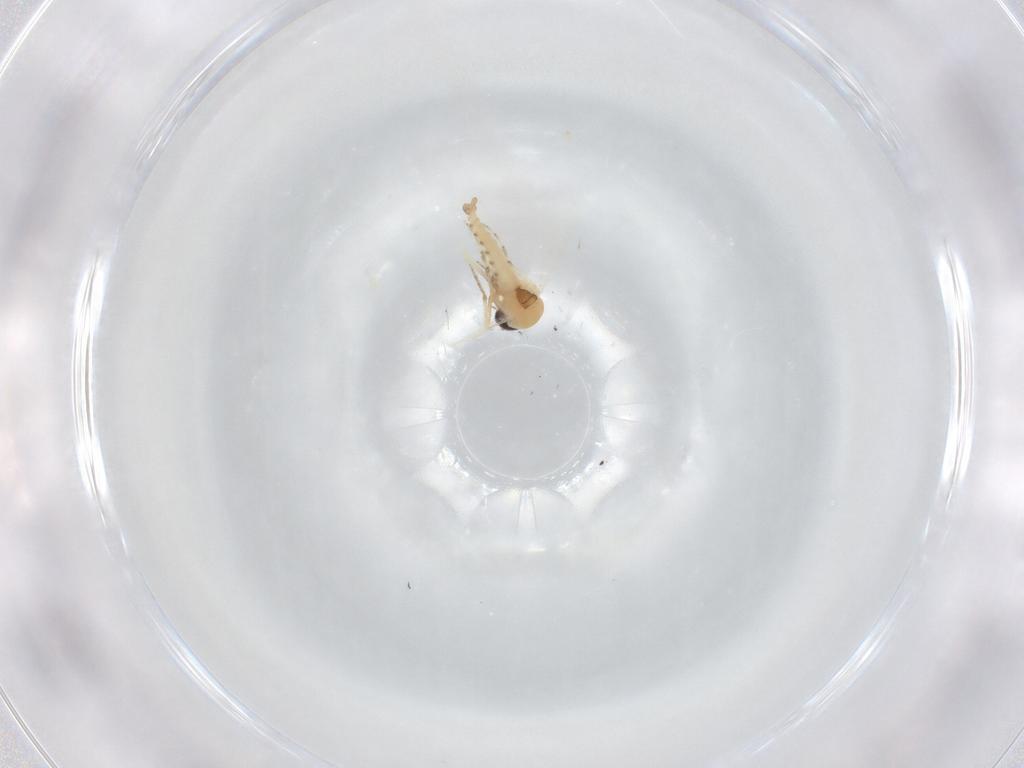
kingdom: Animalia
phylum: Arthropoda
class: Insecta
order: Diptera
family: Ceratopogonidae
